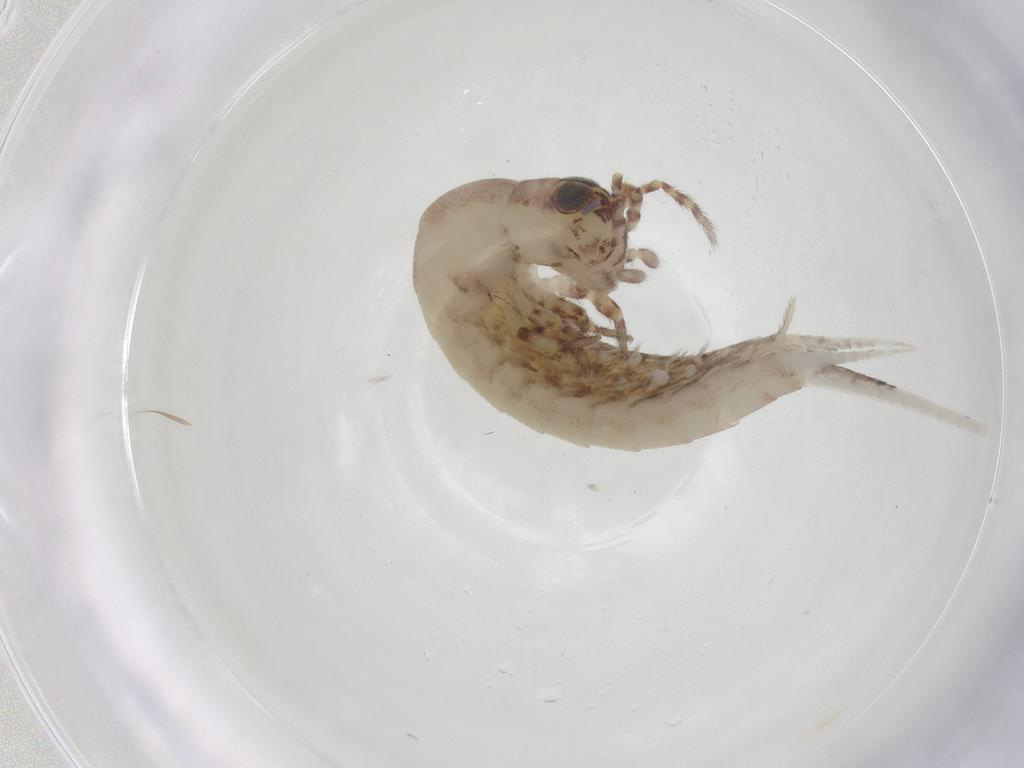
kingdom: Animalia
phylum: Arthropoda
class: Insecta
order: Archaeognatha
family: Meinertellidae
